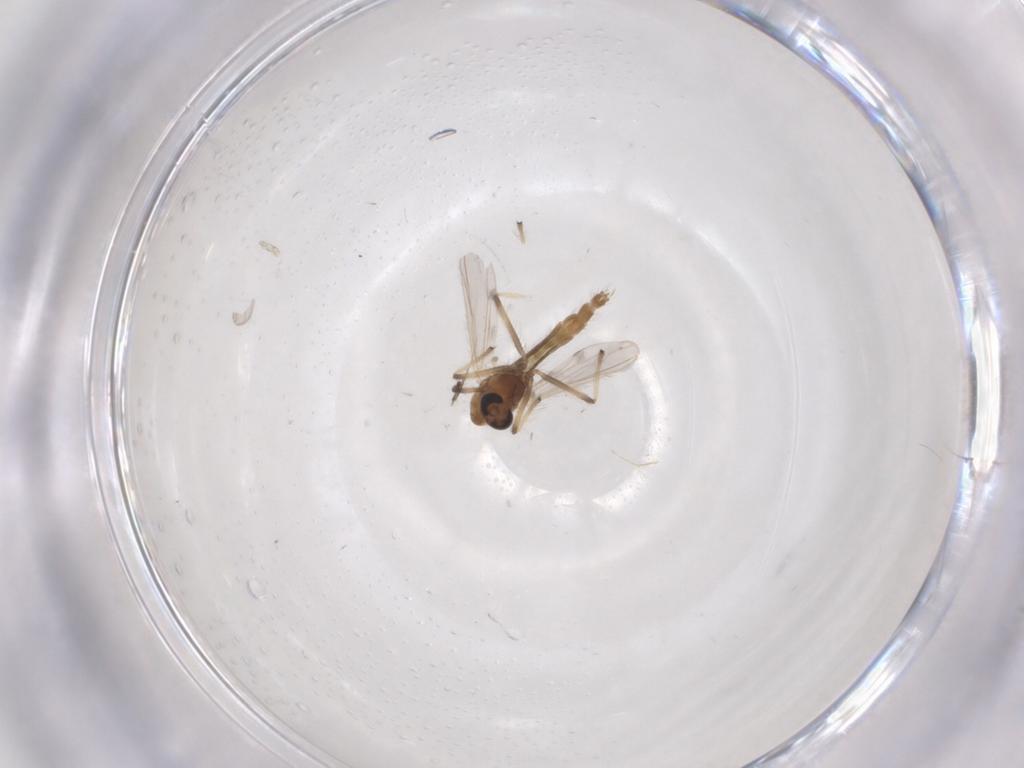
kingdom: Animalia
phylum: Arthropoda
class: Insecta
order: Diptera
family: Chironomidae
